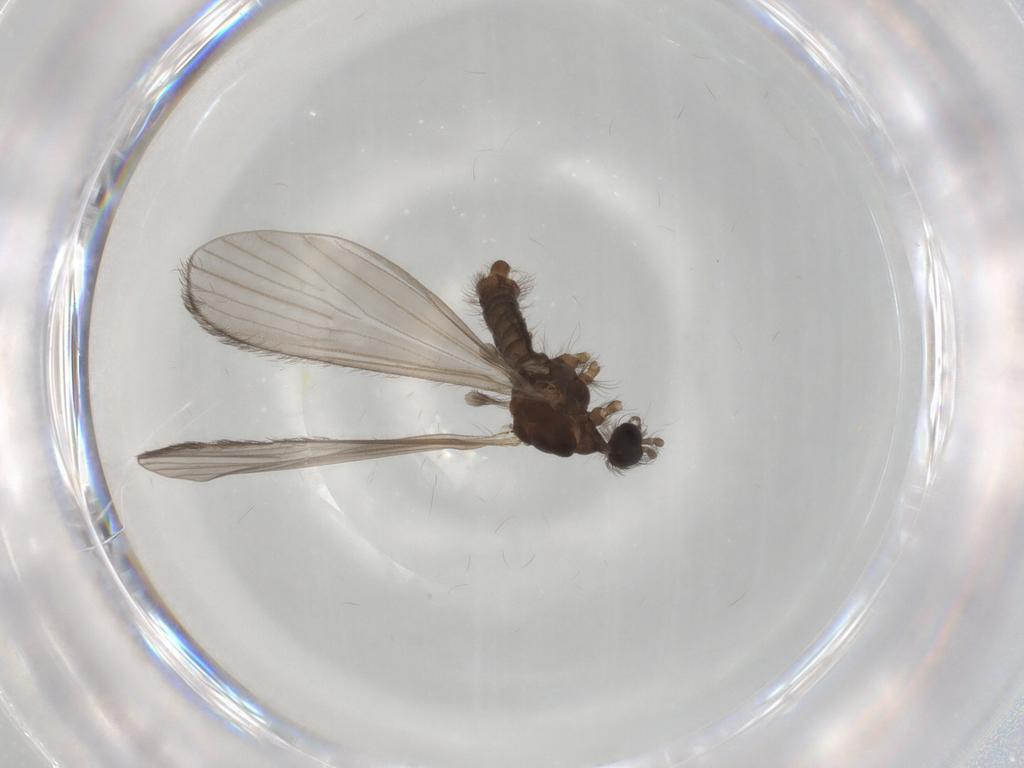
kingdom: Animalia
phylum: Arthropoda
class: Insecta
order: Diptera
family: Limoniidae
